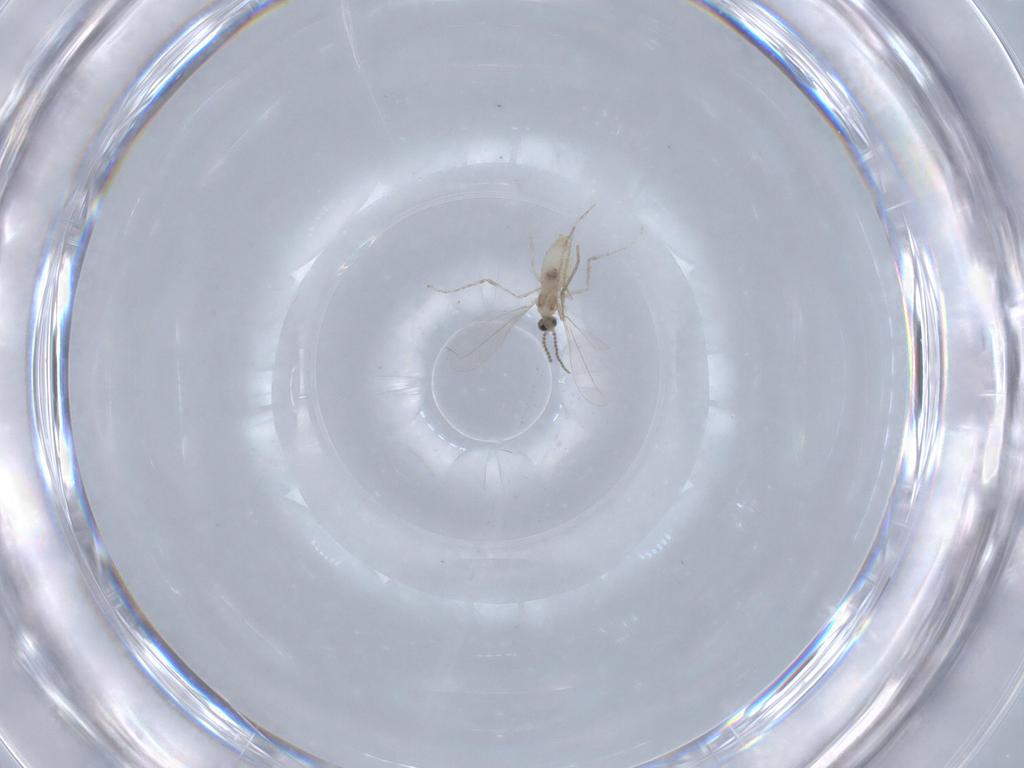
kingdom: Animalia
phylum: Arthropoda
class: Insecta
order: Diptera
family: Cecidomyiidae
